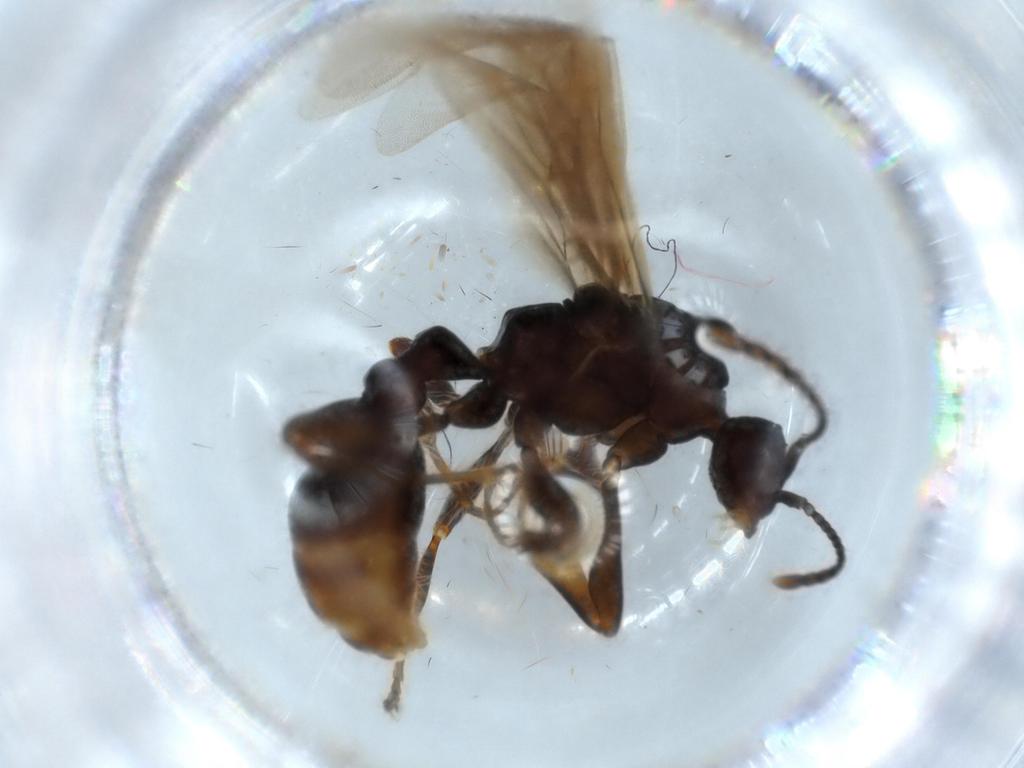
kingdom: Animalia
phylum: Arthropoda
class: Insecta
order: Hymenoptera
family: Formicidae
